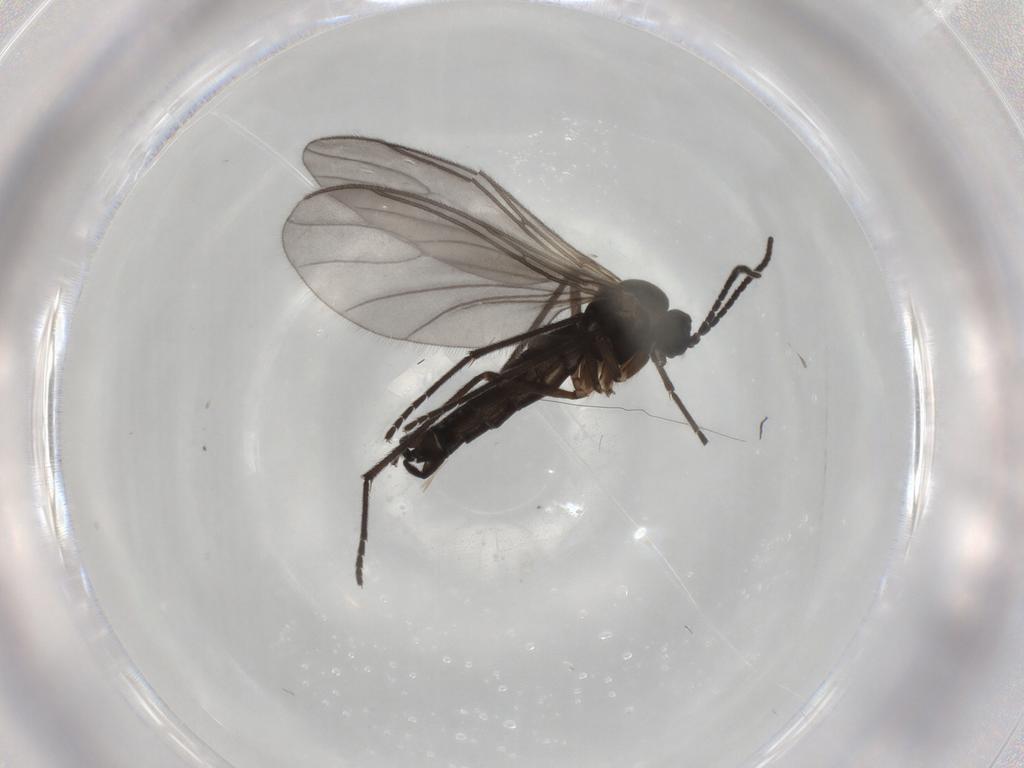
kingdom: Animalia
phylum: Arthropoda
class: Insecta
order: Diptera
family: Sciaridae
